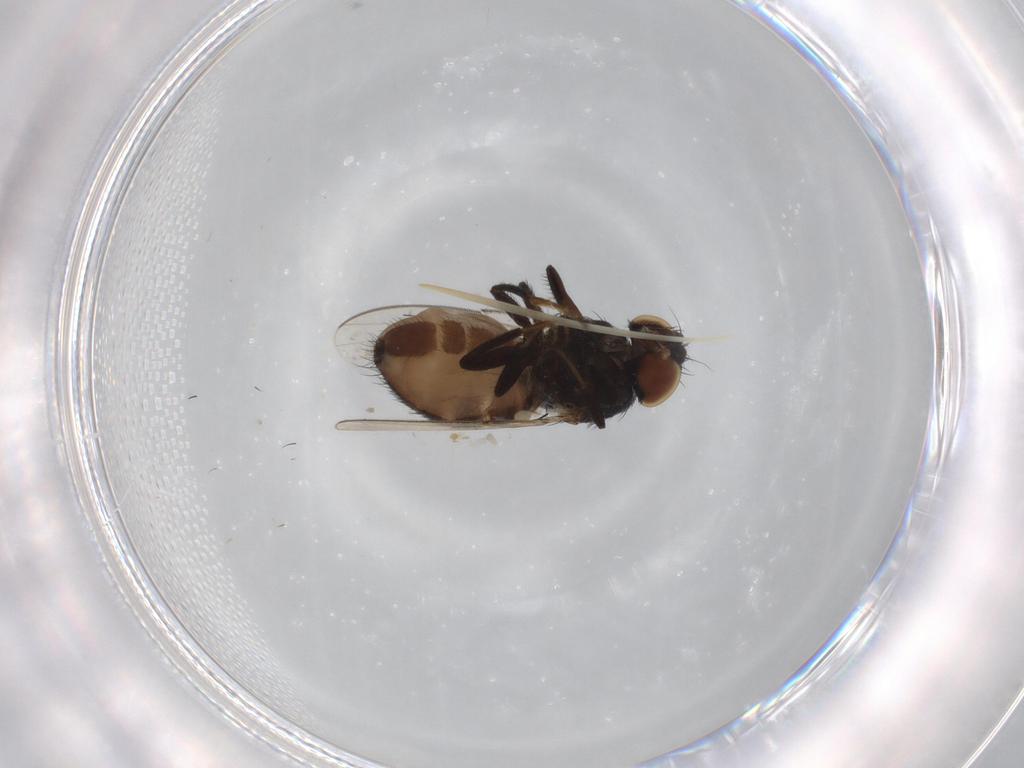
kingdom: Animalia
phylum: Arthropoda
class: Insecta
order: Diptera
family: Milichiidae
